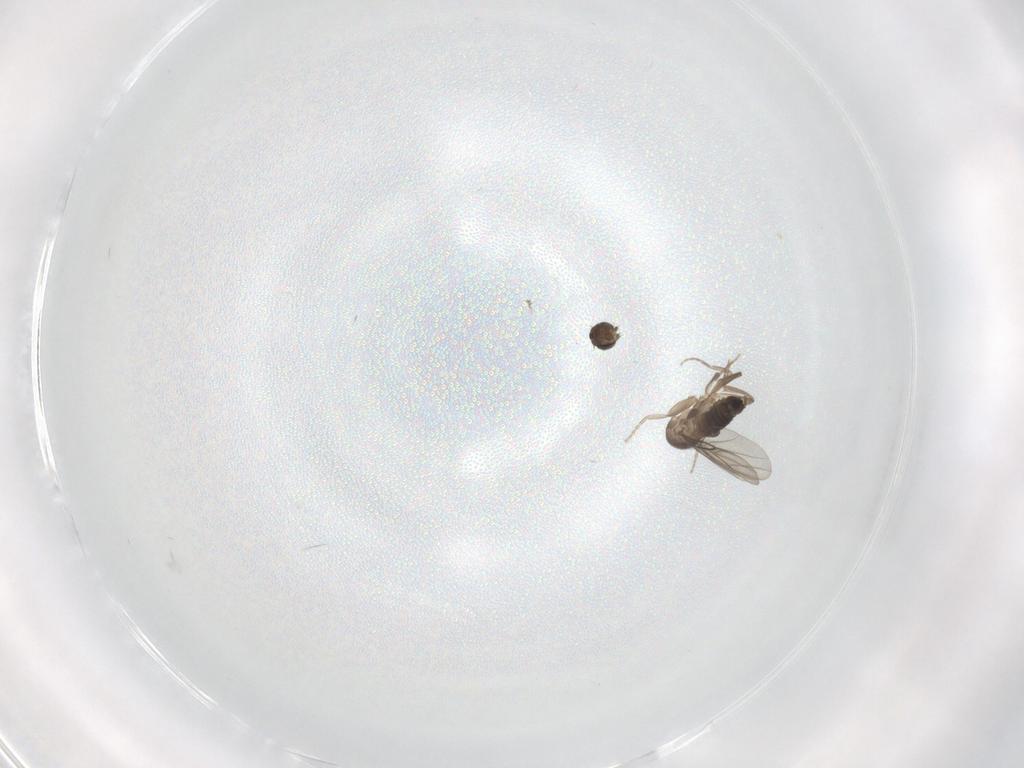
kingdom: Animalia
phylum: Arthropoda
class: Insecta
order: Diptera
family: Cecidomyiidae
